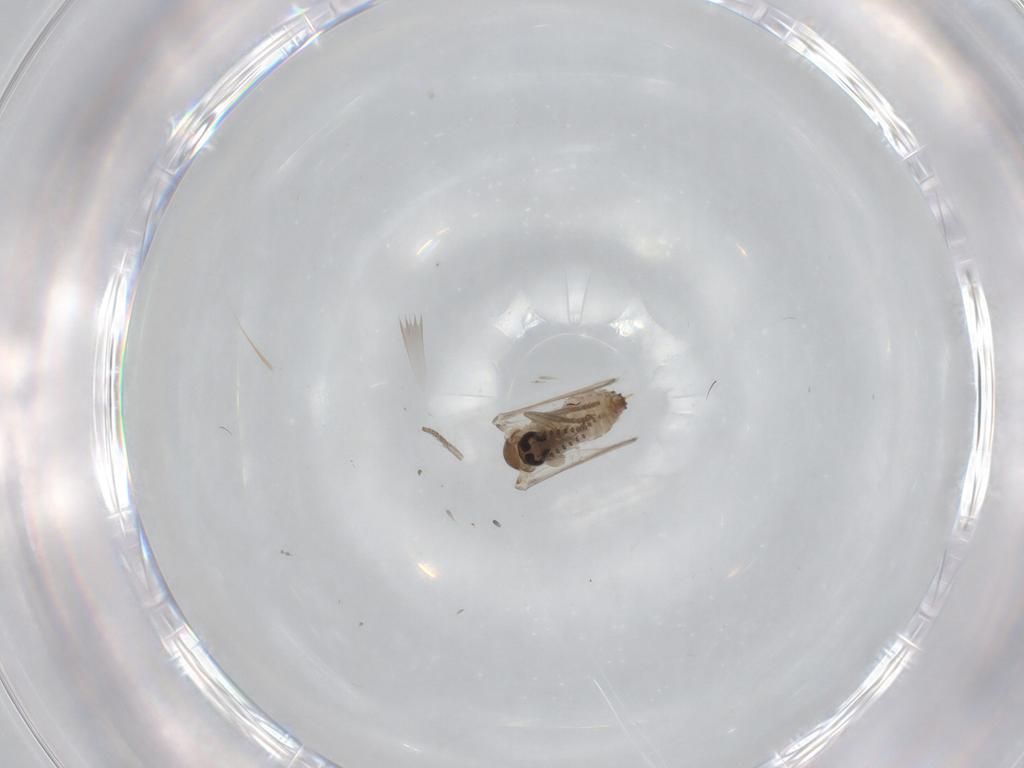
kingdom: Animalia
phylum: Arthropoda
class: Insecta
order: Diptera
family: Psychodidae
